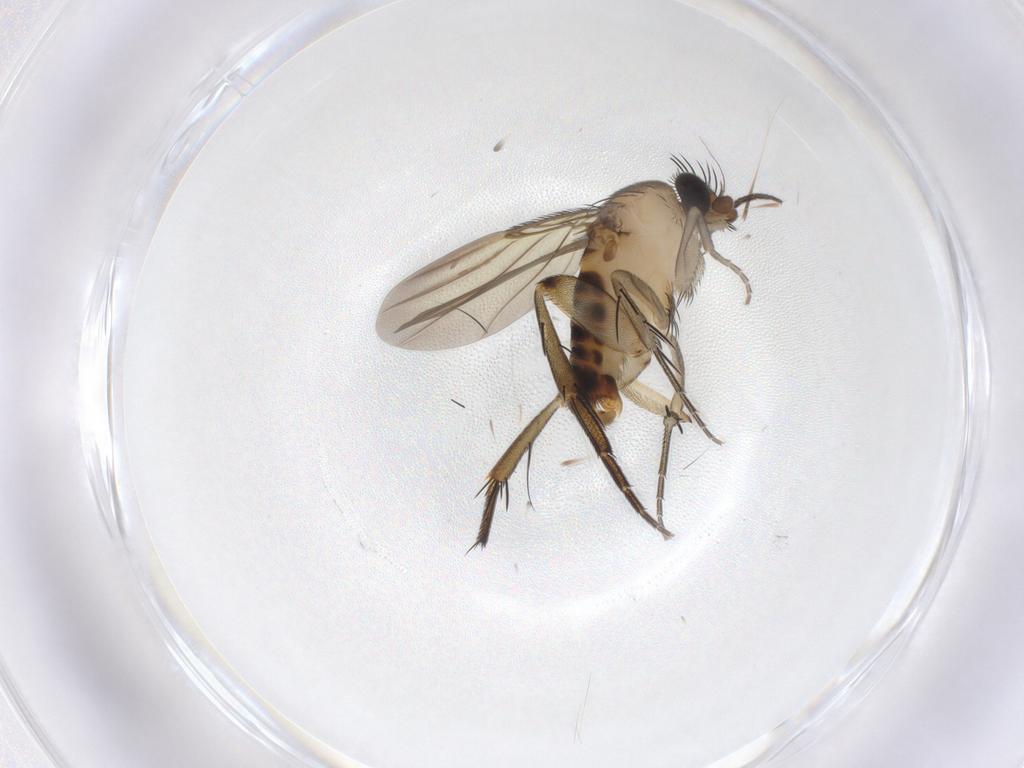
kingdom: Animalia
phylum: Arthropoda
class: Insecta
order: Diptera
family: Phoridae
